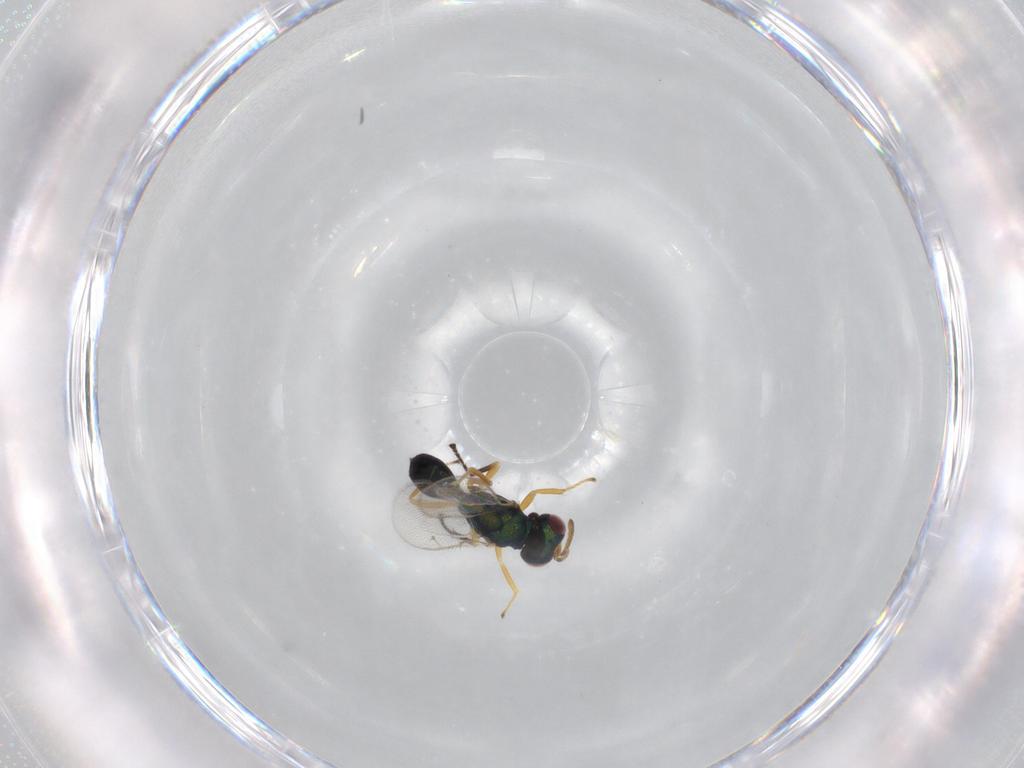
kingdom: Animalia
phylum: Arthropoda
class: Insecta
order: Hymenoptera
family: Pteromalidae
